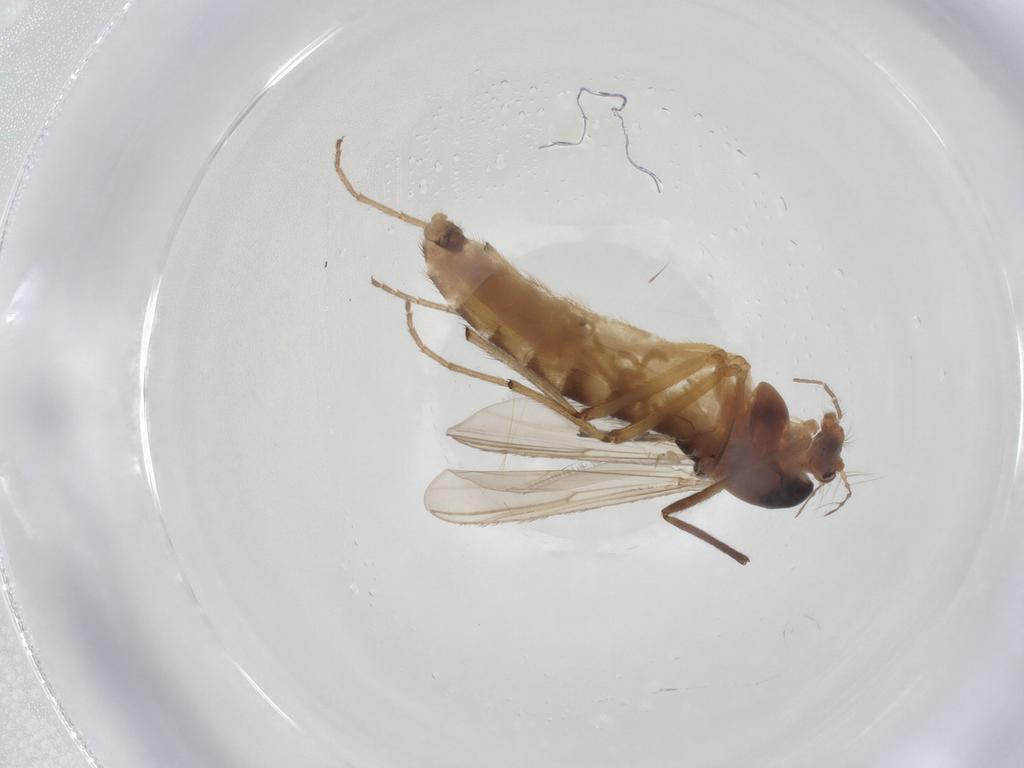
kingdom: Animalia
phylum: Arthropoda
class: Insecta
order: Diptera
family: Chironomidae
